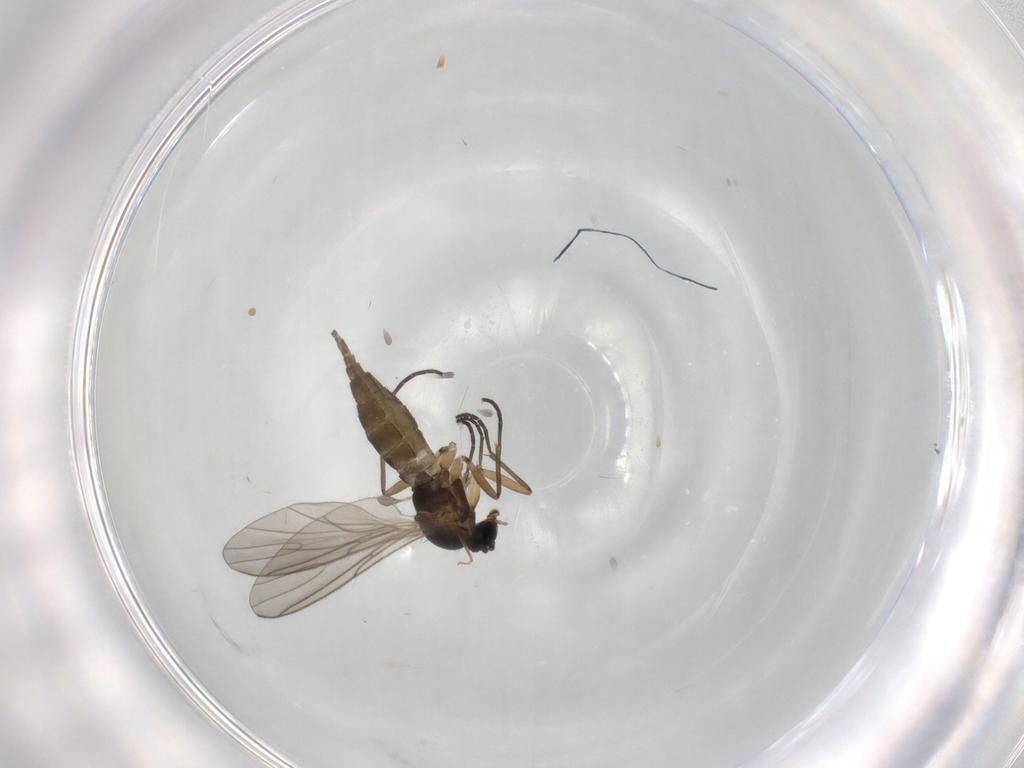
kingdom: Animalia
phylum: Arthropoda
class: Insecta
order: Diptera
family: Sciaridae
